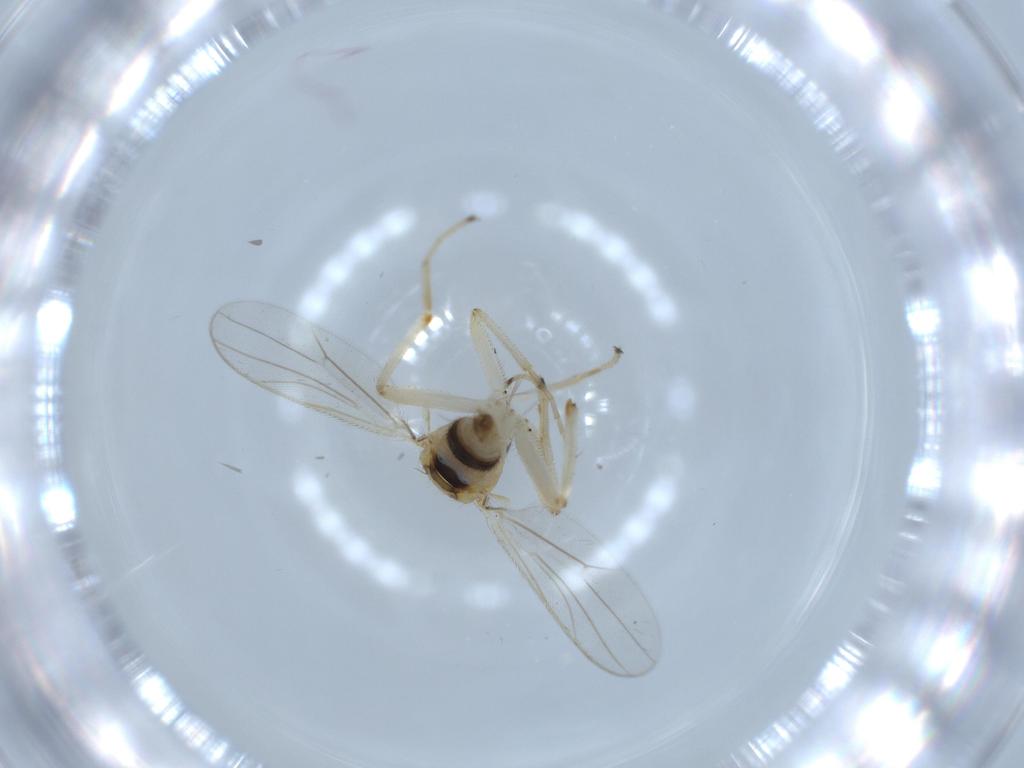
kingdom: Animalia
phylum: Arthropoda
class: Insecta
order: Diptera
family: Hybotidae
